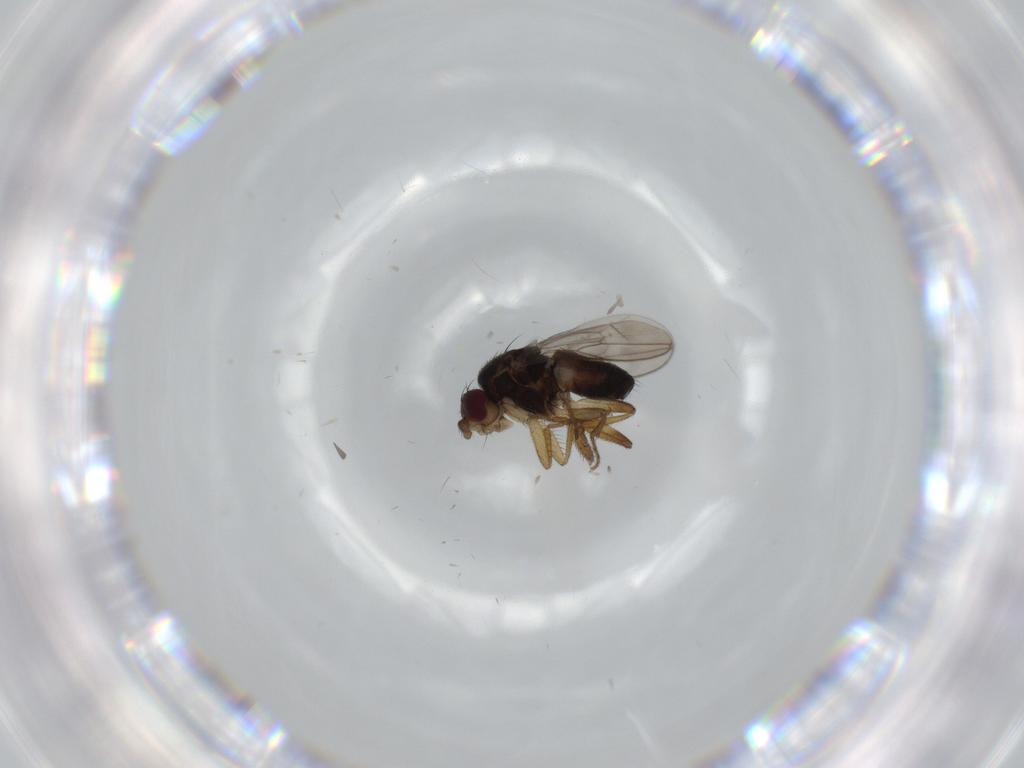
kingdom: Animalia
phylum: Arthropoda
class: Insecta
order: Diptera
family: Sphaeroceridae
